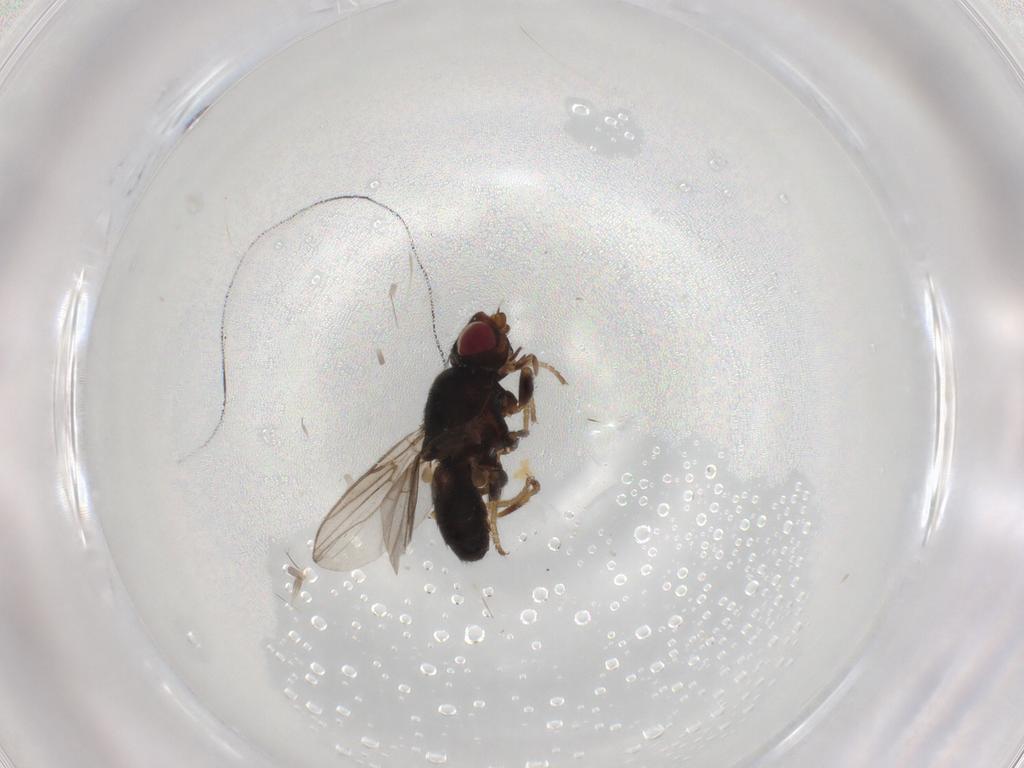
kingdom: Animalia
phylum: Arthropoda
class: Insecta
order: Diptera
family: Chloropidae
